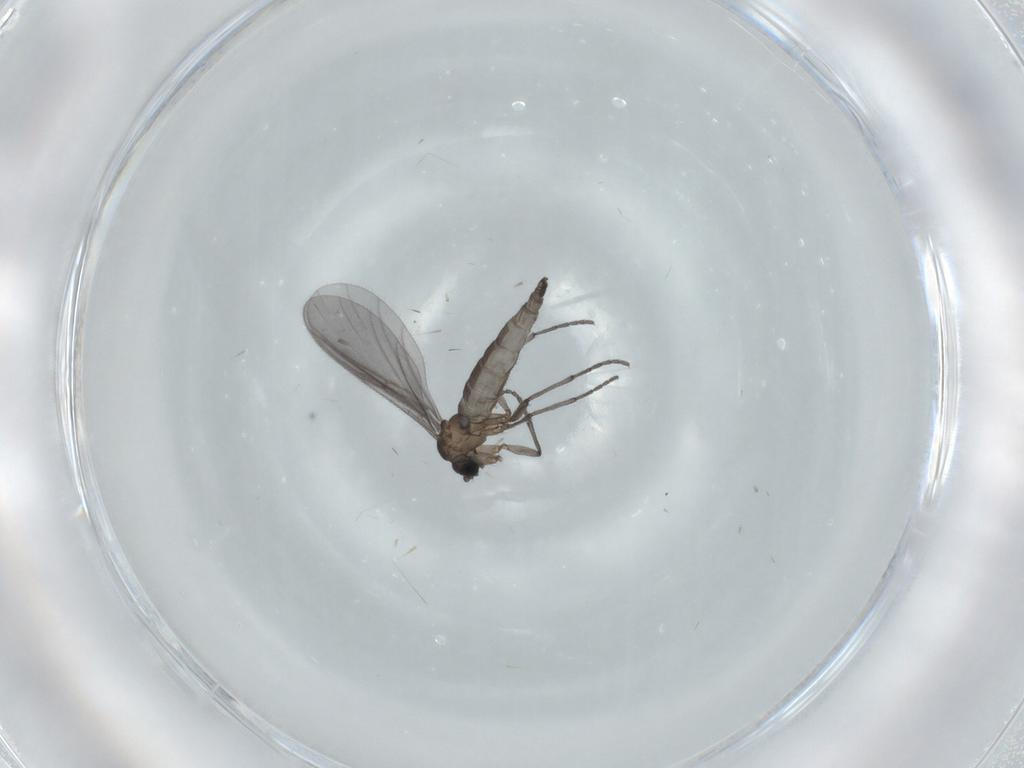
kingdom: Animalia
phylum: Arthropoda
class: Insecta
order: Diptera
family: Sciaridae
